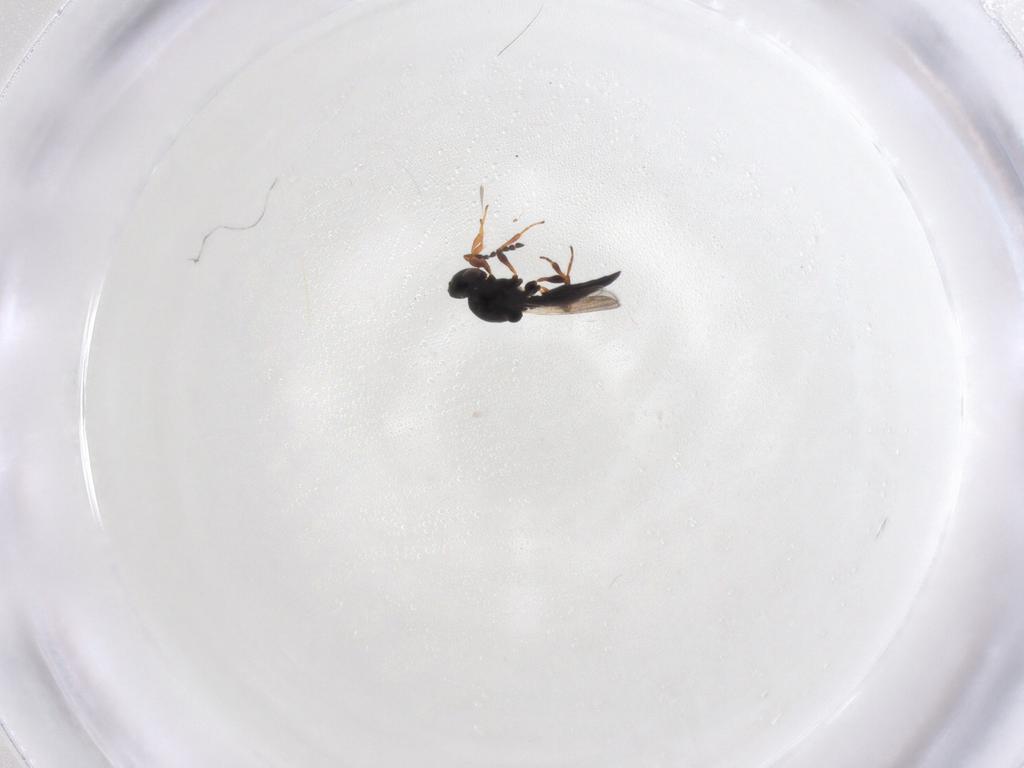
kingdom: Animalia
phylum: Arthropoda
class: Insecta
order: Hymenoptera
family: Platygastridae
